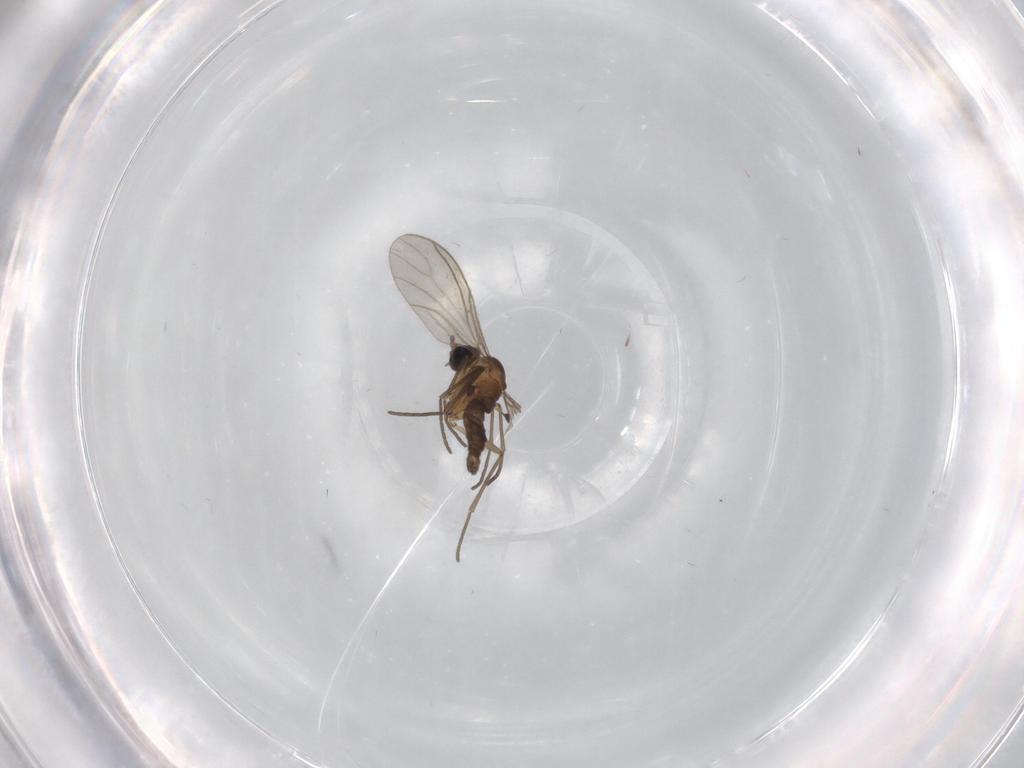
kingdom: Animalia
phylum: Arthropoda
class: Insecta
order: Diptera
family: Sciaridae
